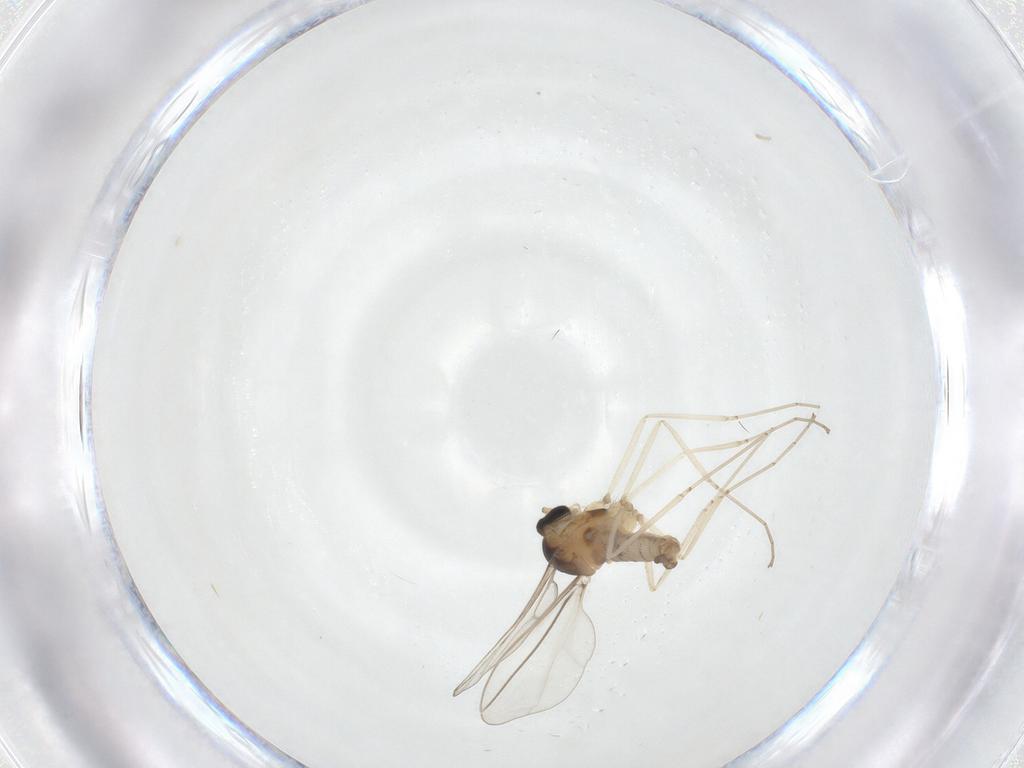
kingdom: Animalia
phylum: Arthropoda
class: Insecta
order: Diptera
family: Cecidomyiidae
